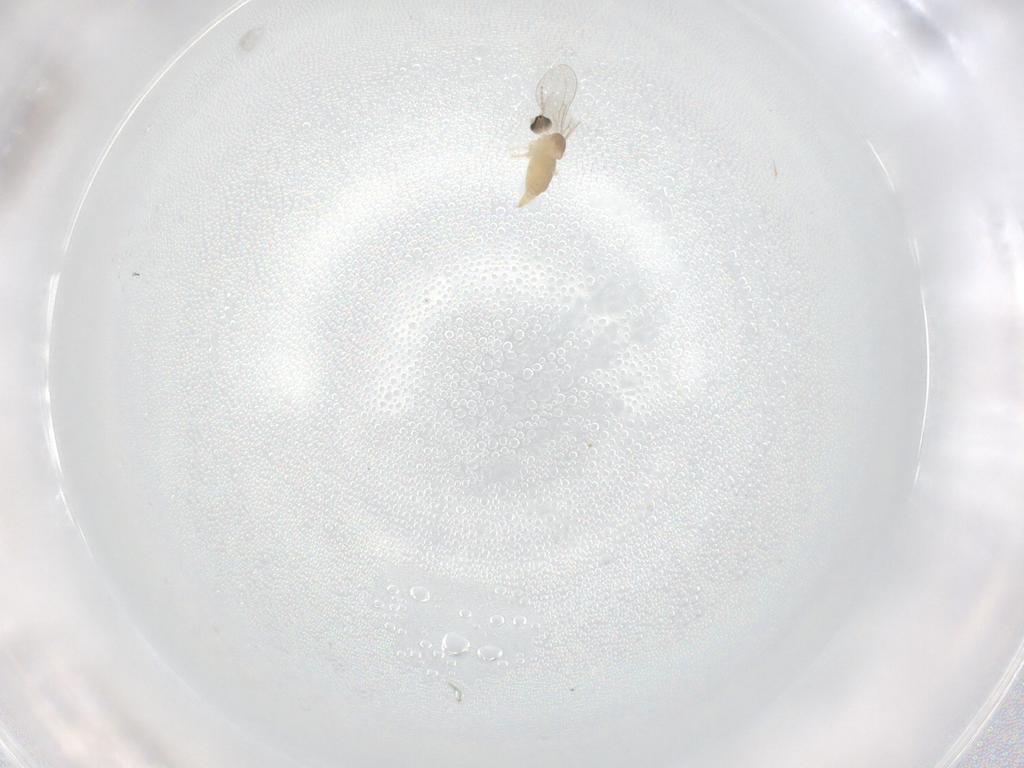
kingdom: Animalia
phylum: Arthropoda
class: Insecta
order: Diptera
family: Cecidomyiidae
